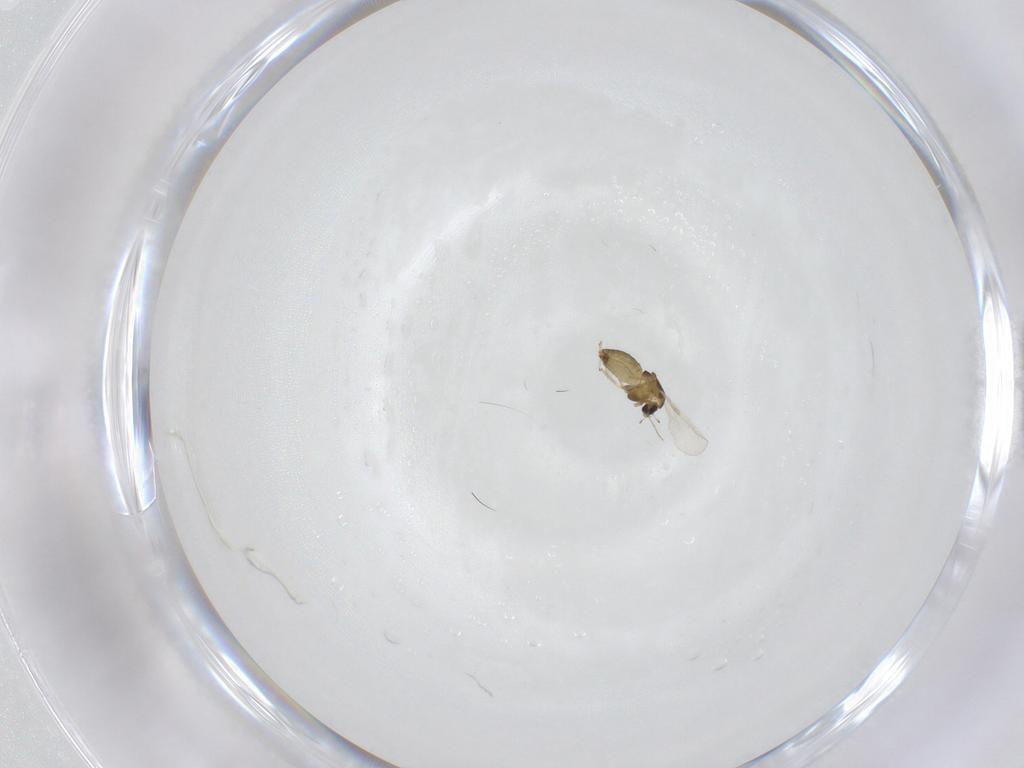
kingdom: Animalia
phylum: Arthropoda
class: Insecta
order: Diptera
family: Chironomidae
